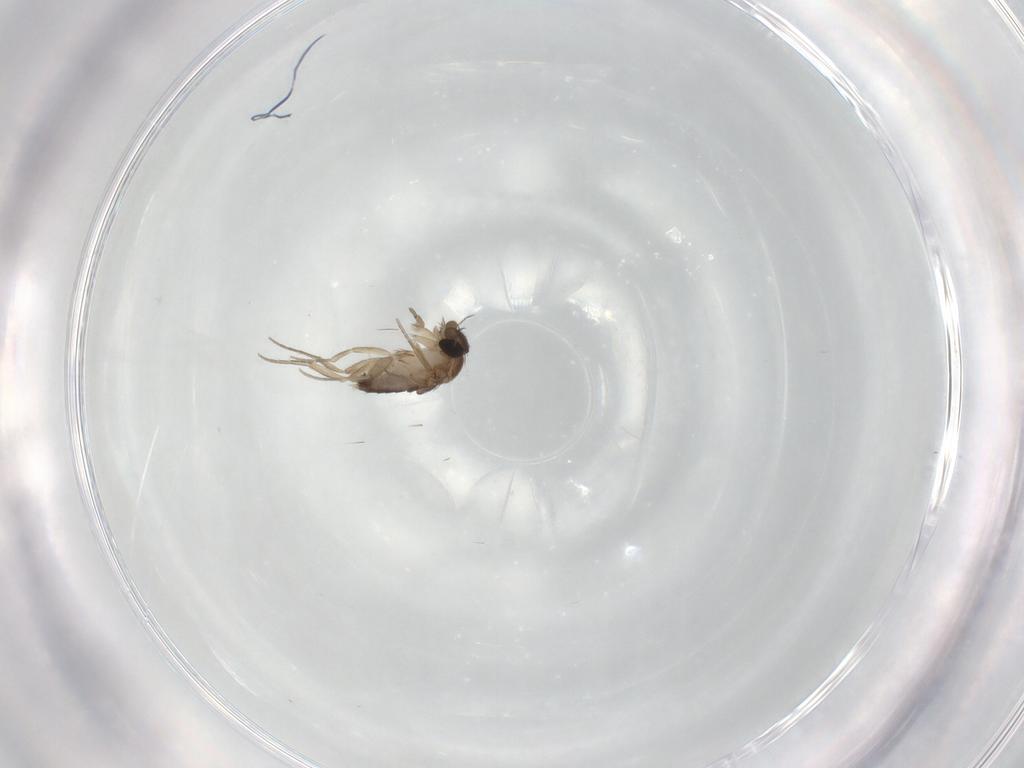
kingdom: Animalia
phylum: Arthropoda
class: Insecta
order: Diptera
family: Phoridae
